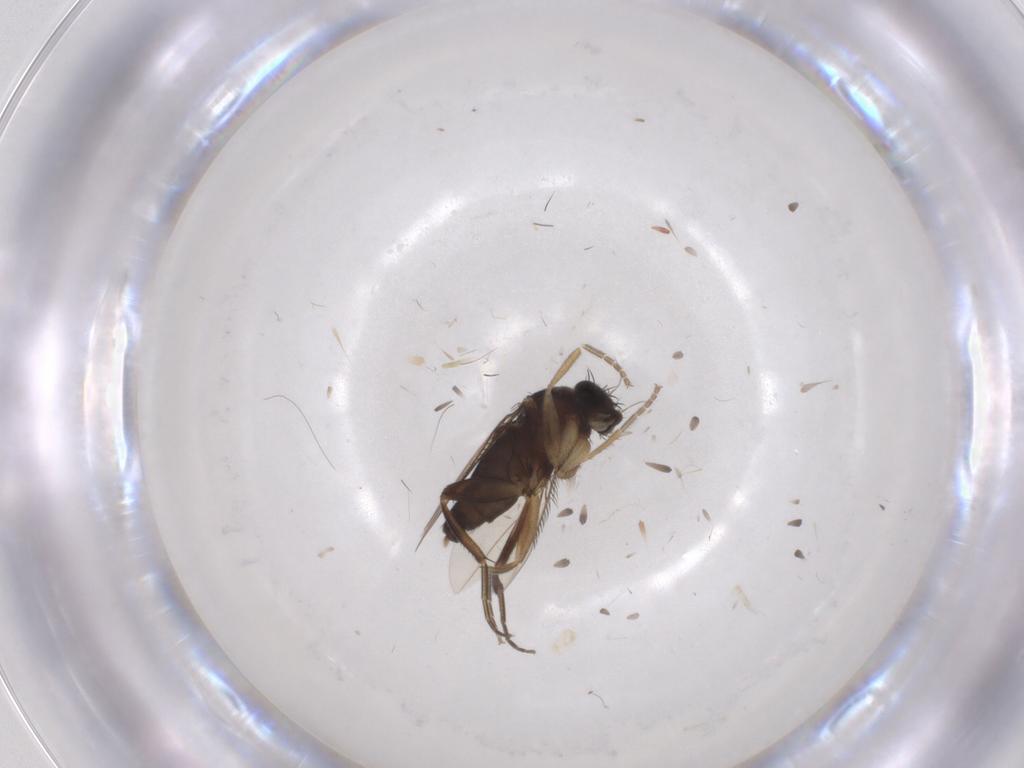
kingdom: Animalia
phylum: Arthropoda
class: Insecta
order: Diptera
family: Phoridae
